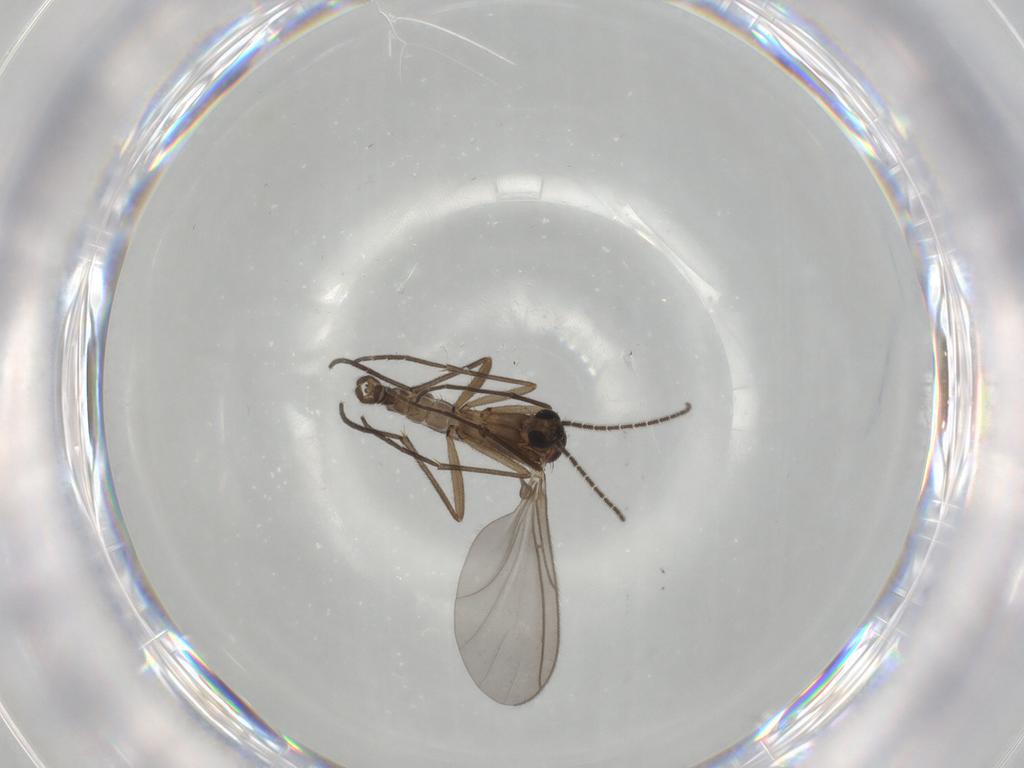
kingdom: Animalia
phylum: Arthropoda
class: Insecta
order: Diptera
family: Sciaridae
